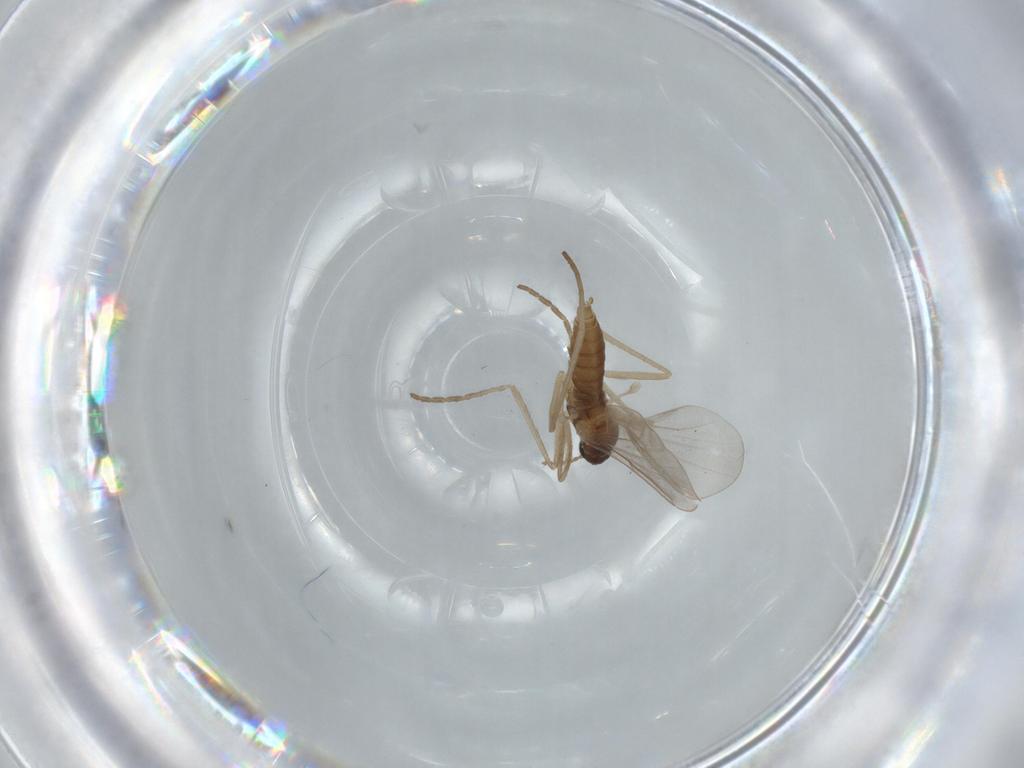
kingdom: Animalia
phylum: Arthropoda
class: Insecta
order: Diptera
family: Cecidomyiidae
